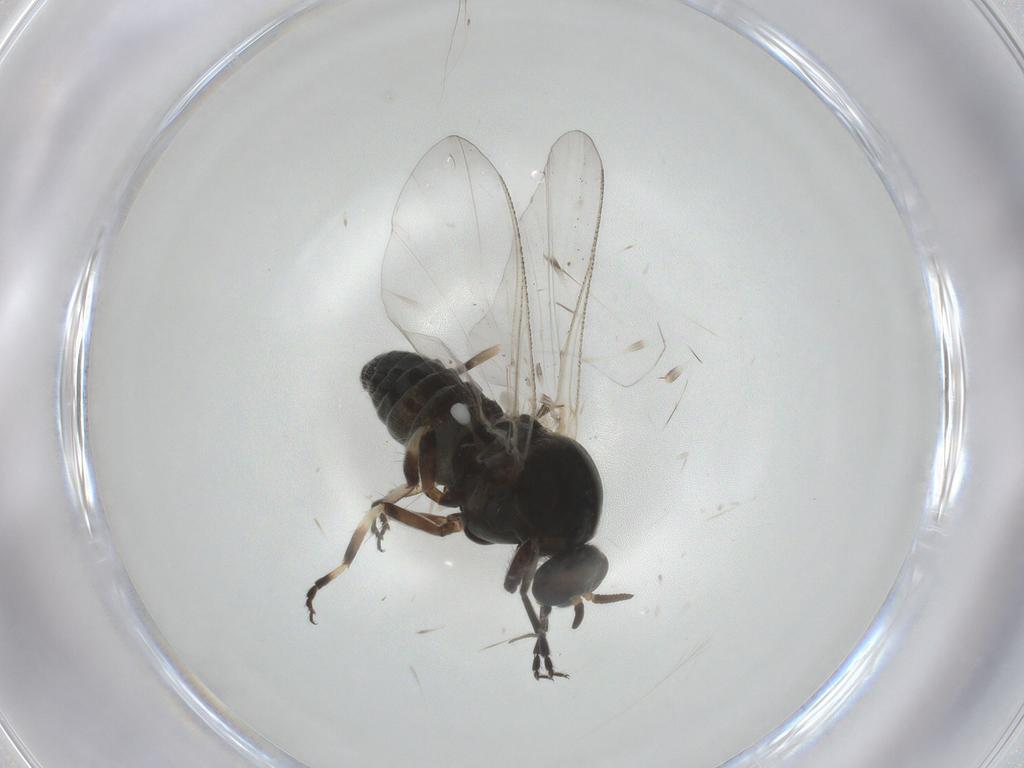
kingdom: Animalia
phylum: Arthropoda
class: Insecta
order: Diptera
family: Simuliidae
